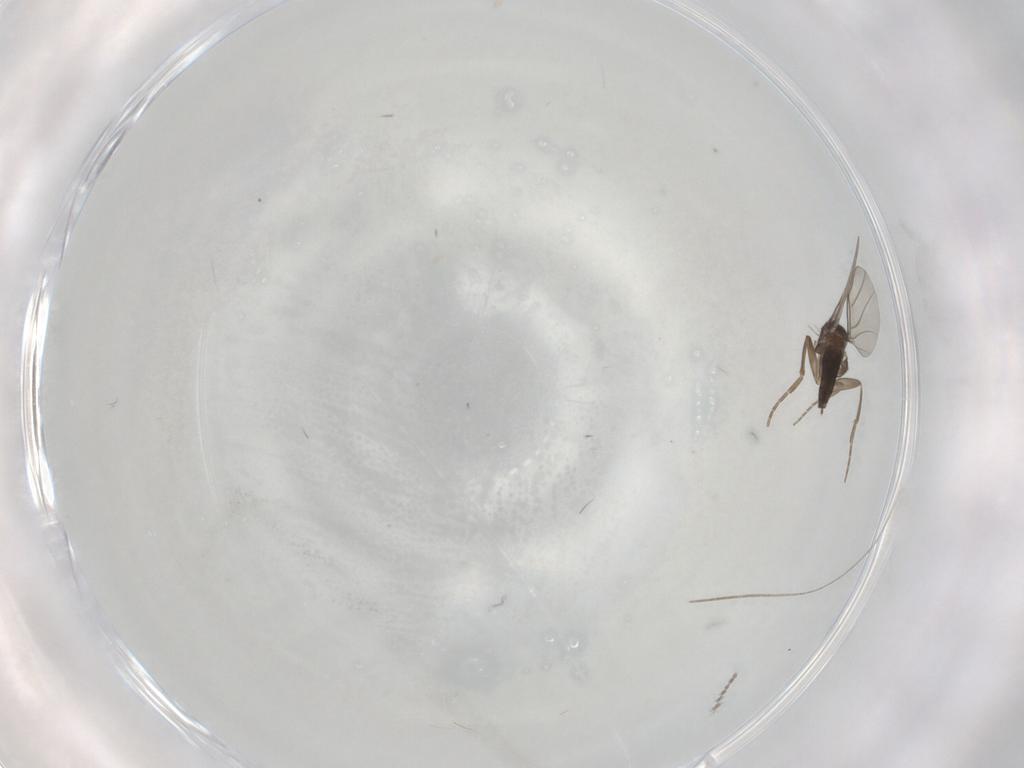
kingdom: Animalia
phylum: Arthropoda
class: Insecta
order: Diptera
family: Cecidomyiidae
